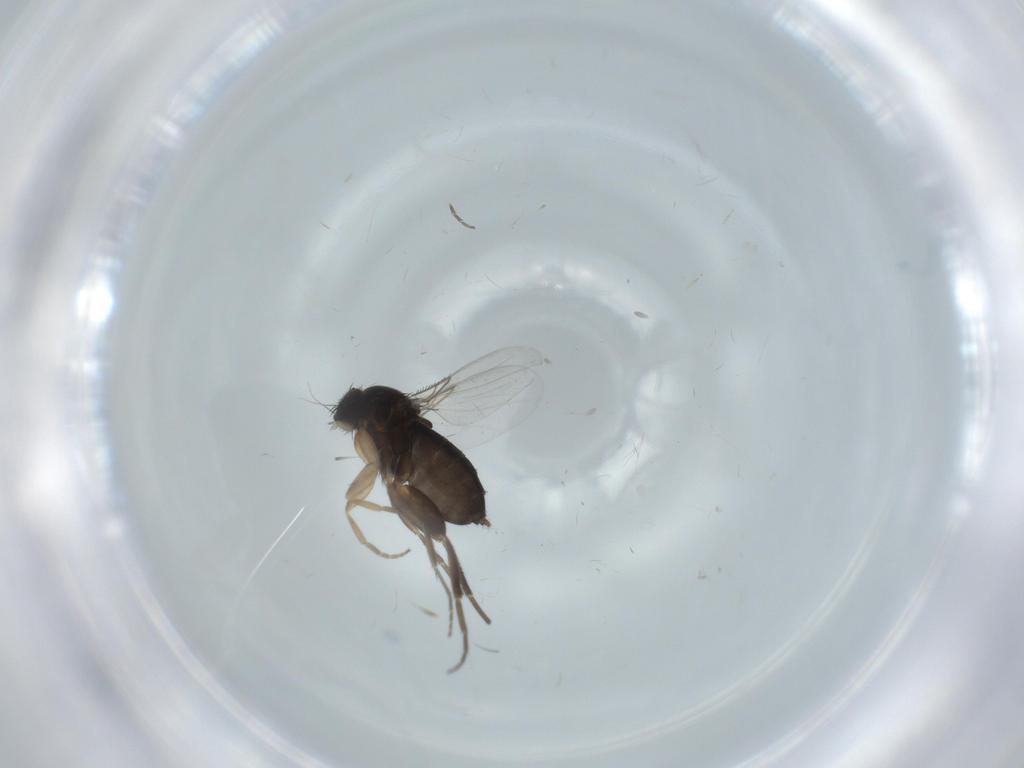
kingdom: Animalia
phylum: Arthropoda
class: Insecta
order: Diptera
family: Phoridae
